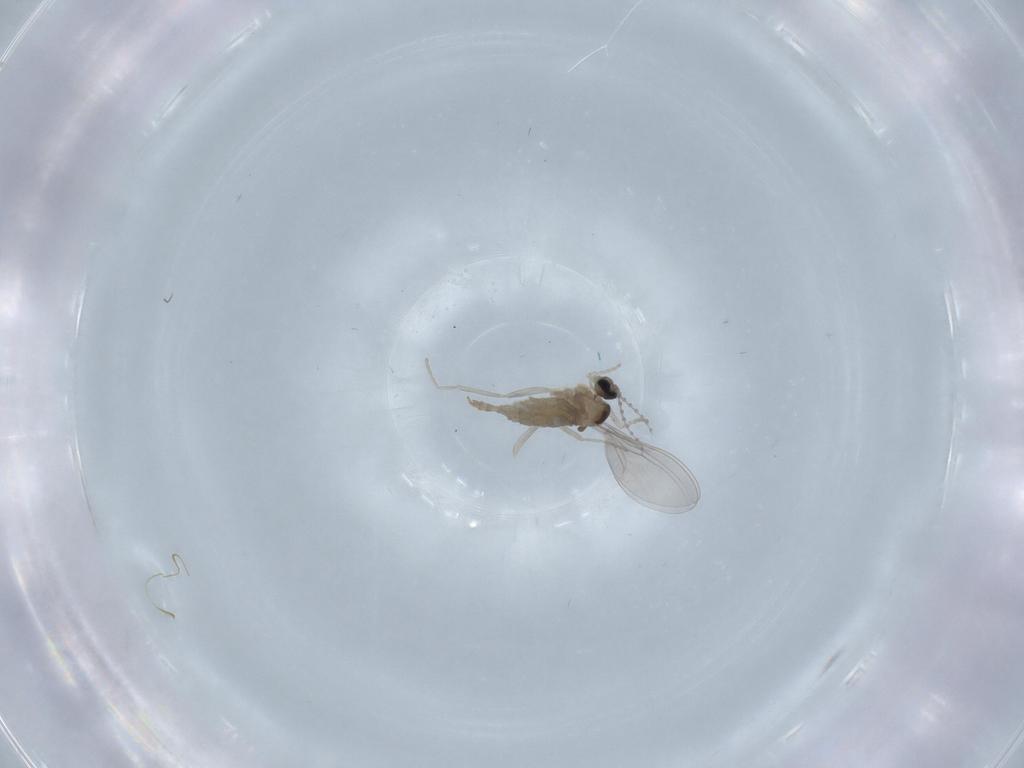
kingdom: Animalia
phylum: Arthropoda
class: Insecta
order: Diptera
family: Cecidomyiidae
